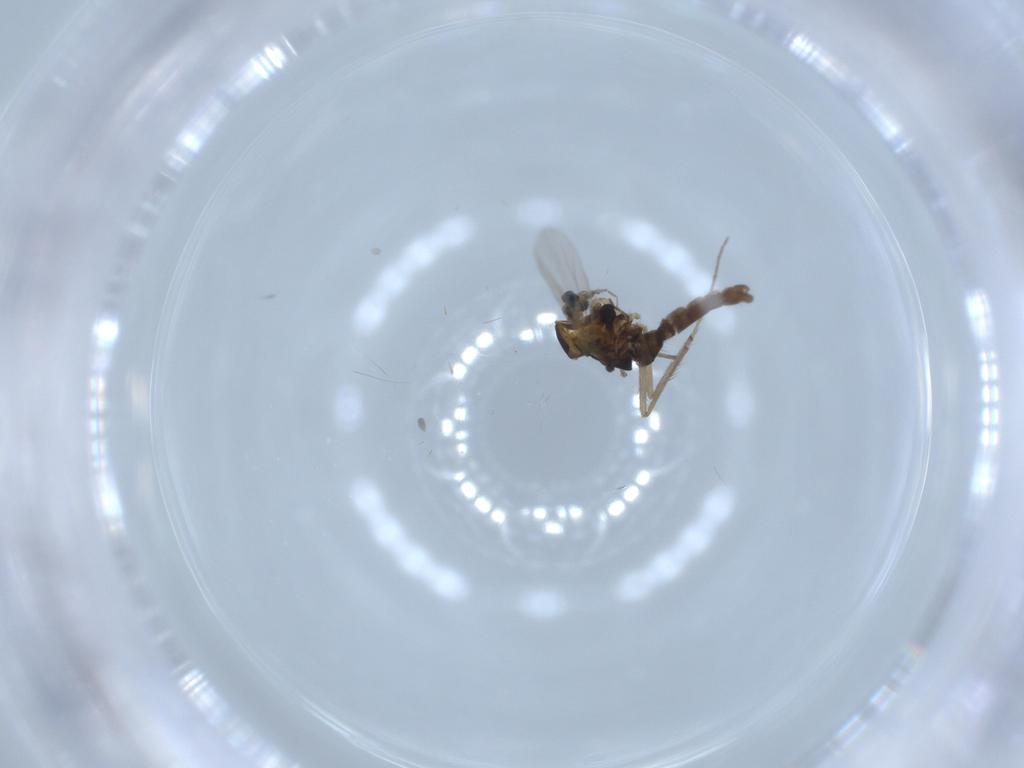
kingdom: Animalia
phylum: Arthropoda
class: Insecta
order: Diptera
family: Chironomidae
